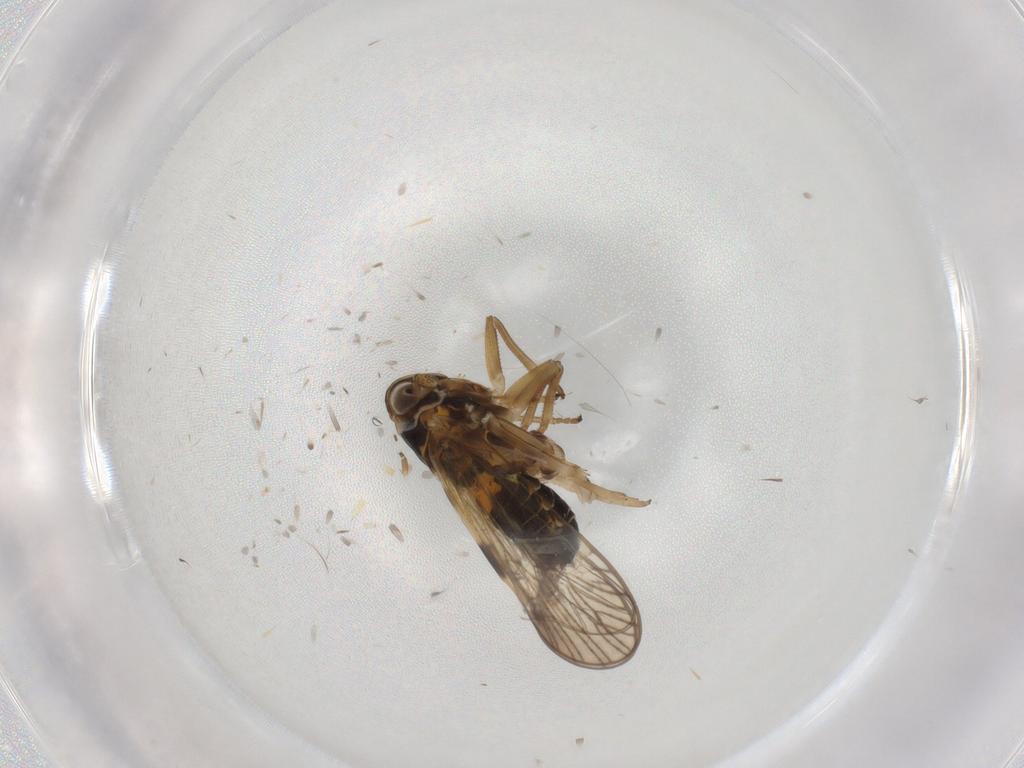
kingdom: Animalia
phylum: Arthropoda
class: Insecta
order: Hemiptera
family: Delphacidae
